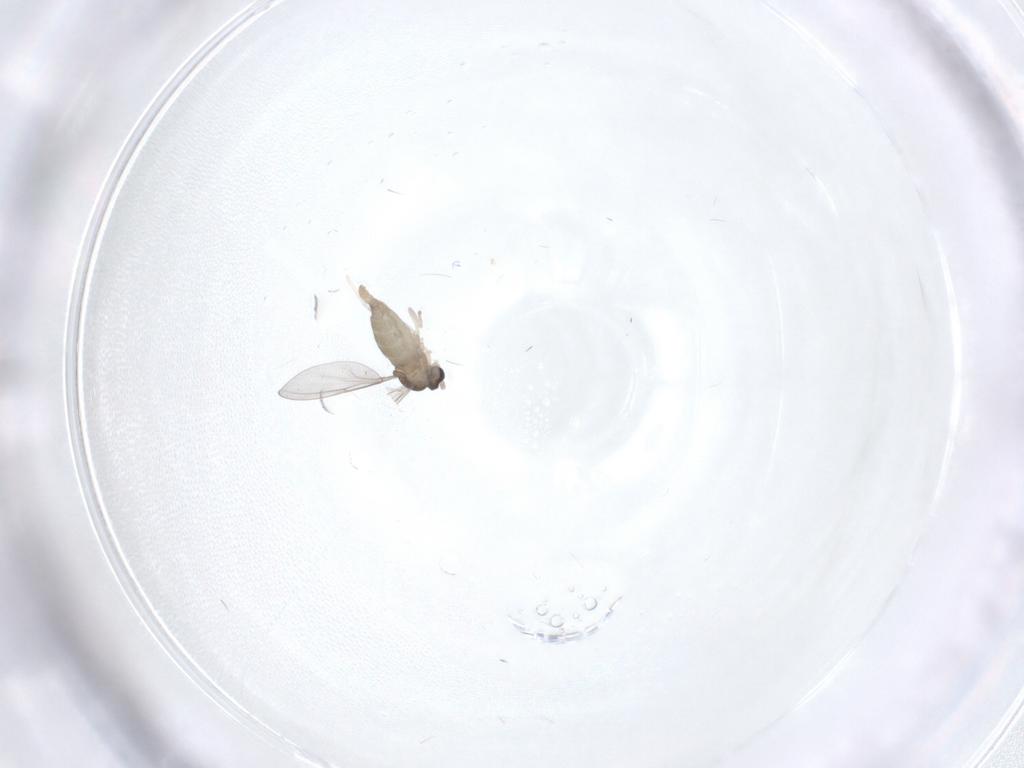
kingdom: Animalia
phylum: Arthropoda
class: Insecta
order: Diptera
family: Cecidomyiidae
